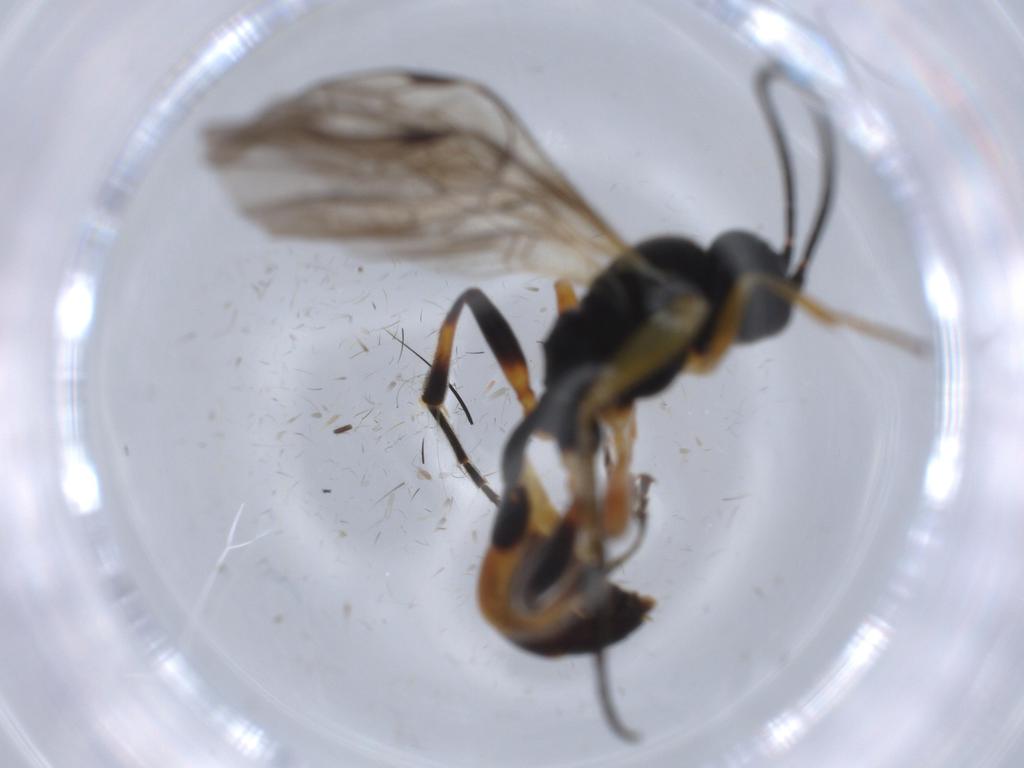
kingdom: Animalia
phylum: Arthropoda
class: Insecta
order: Hymenoptera
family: Ichneumonidae
